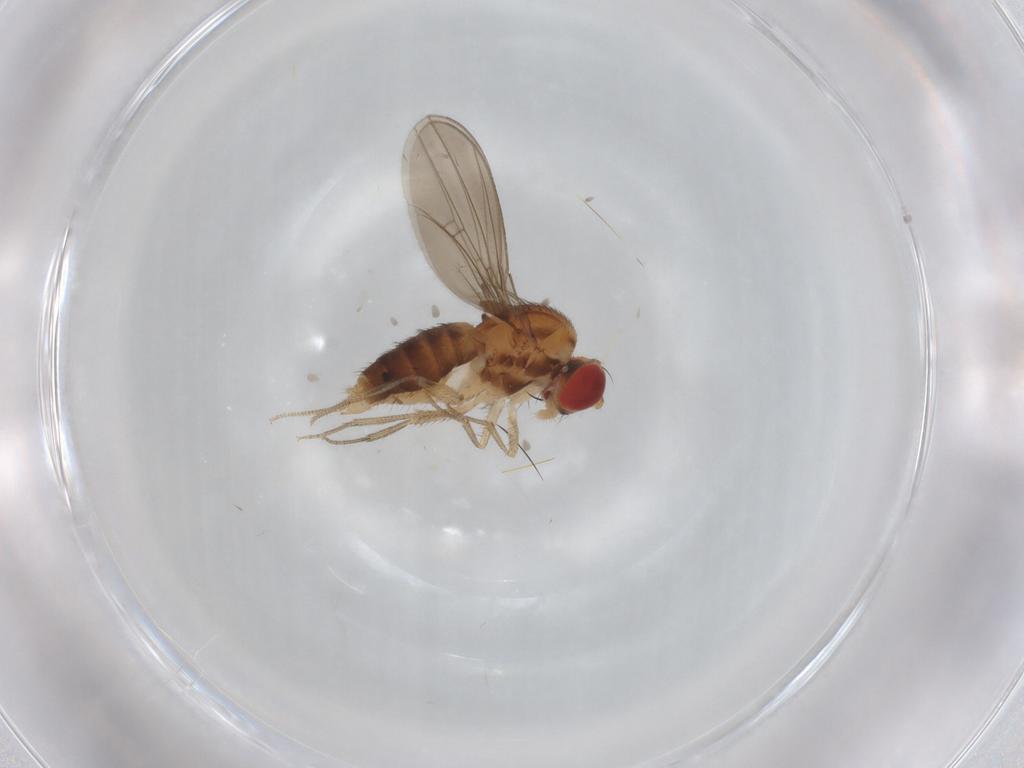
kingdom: Animalia
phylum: Arthropoda
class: Insecta
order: Diptera
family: Drosophilidae
